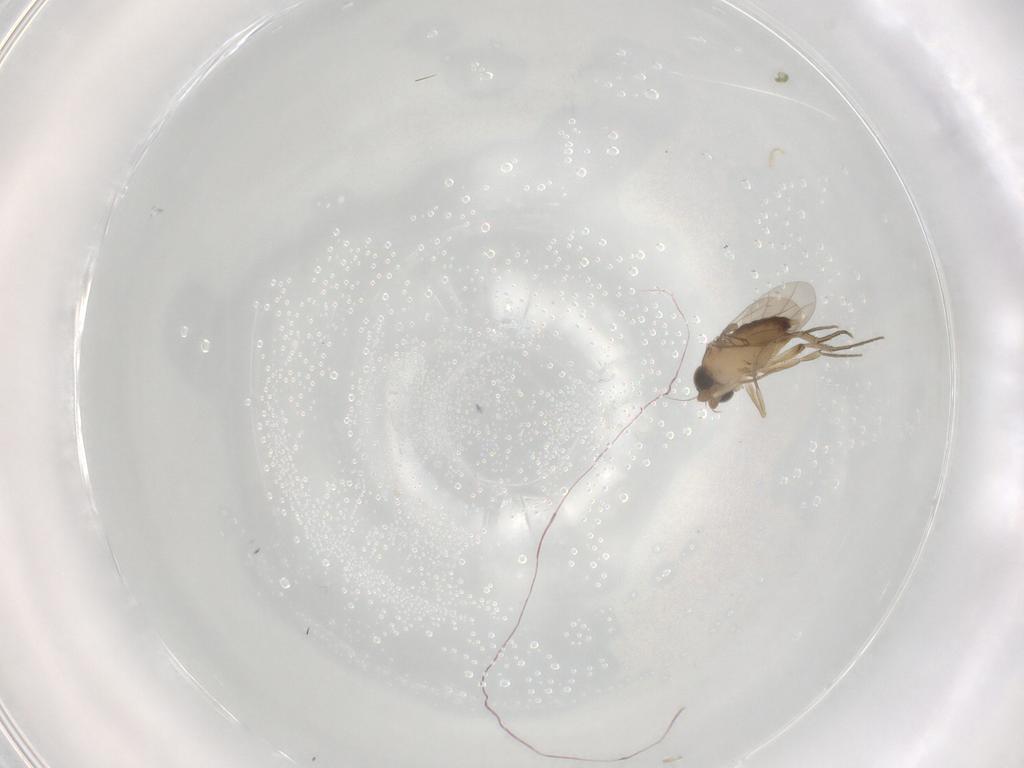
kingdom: Animalia
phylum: Arthropoda
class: Insecta
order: Diptera
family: Phoridae
